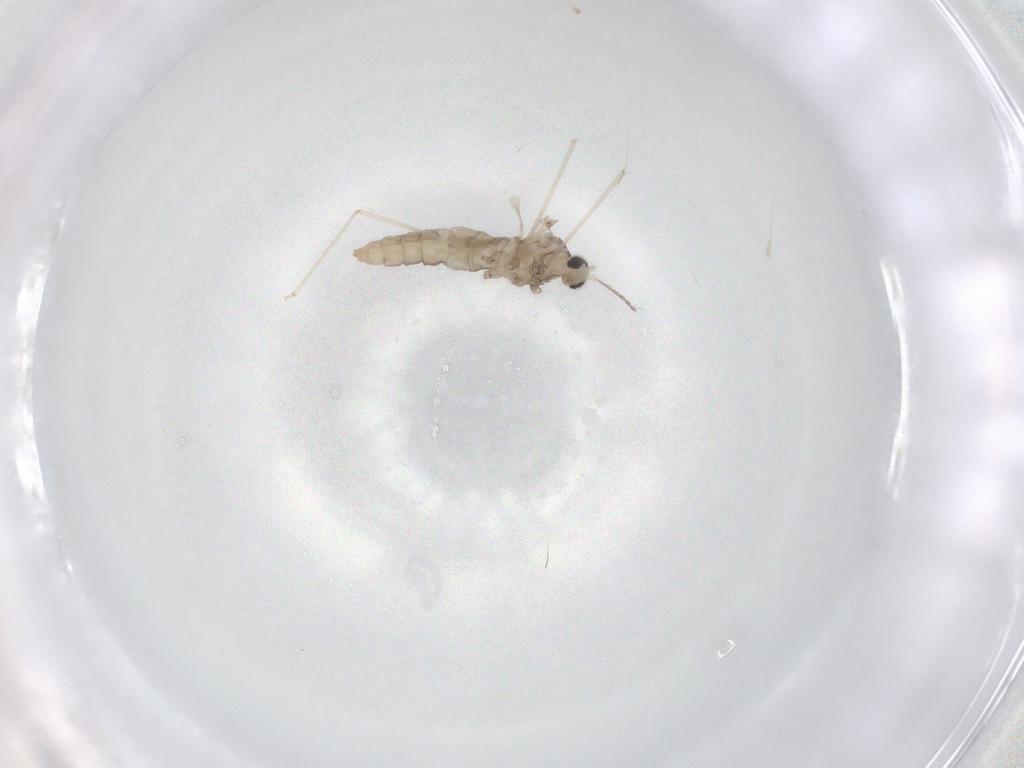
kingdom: Animalia
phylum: Arthropoda
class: Insecta
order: Diptera
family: Cecidomyiidae
